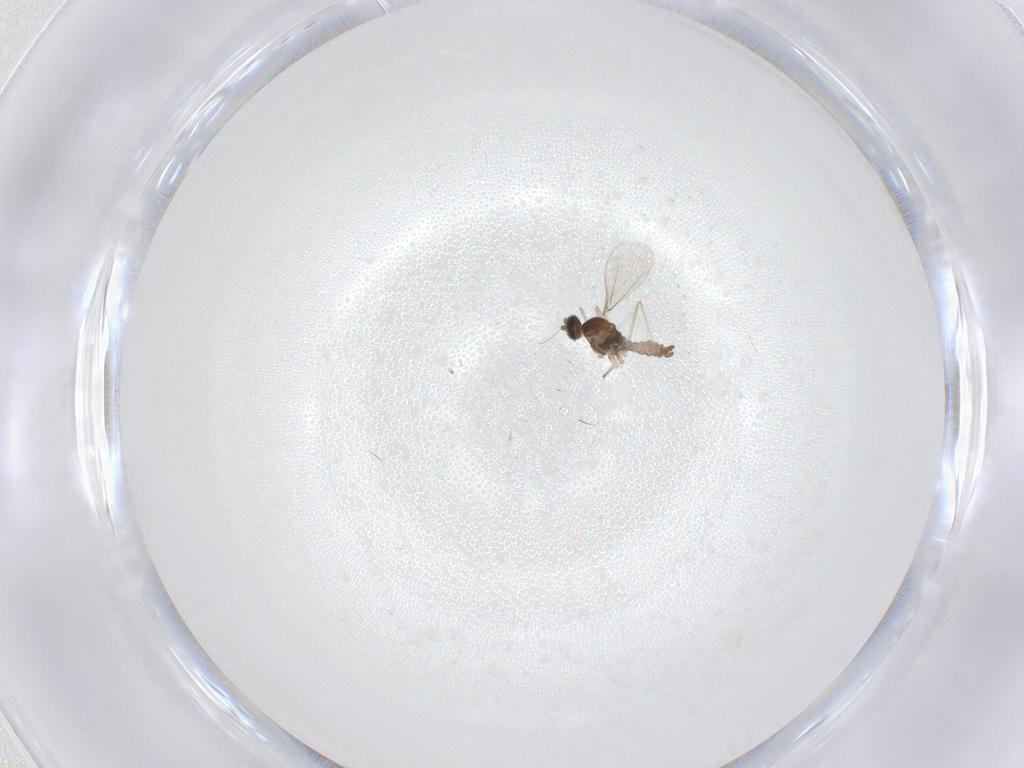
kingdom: Animalia
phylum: Arthropoda
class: Insecta
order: Diptera
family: Cecidomyiidae
